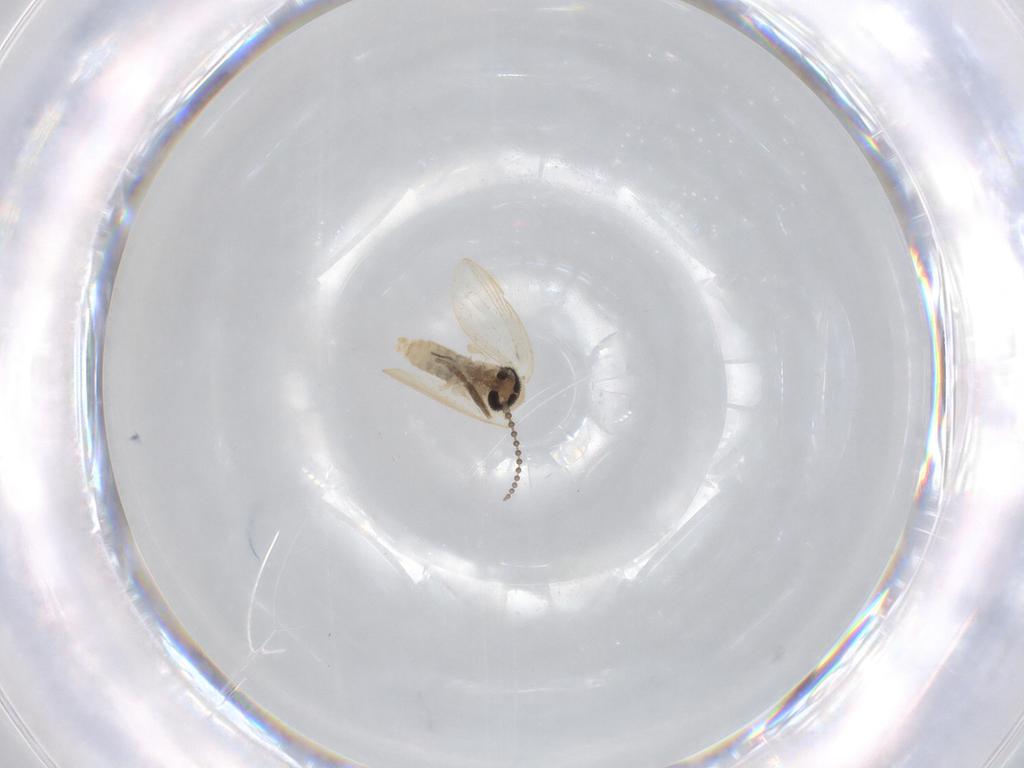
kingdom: Animalia
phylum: Arthropoda
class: Insecta
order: Diptera
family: Psychodidae
